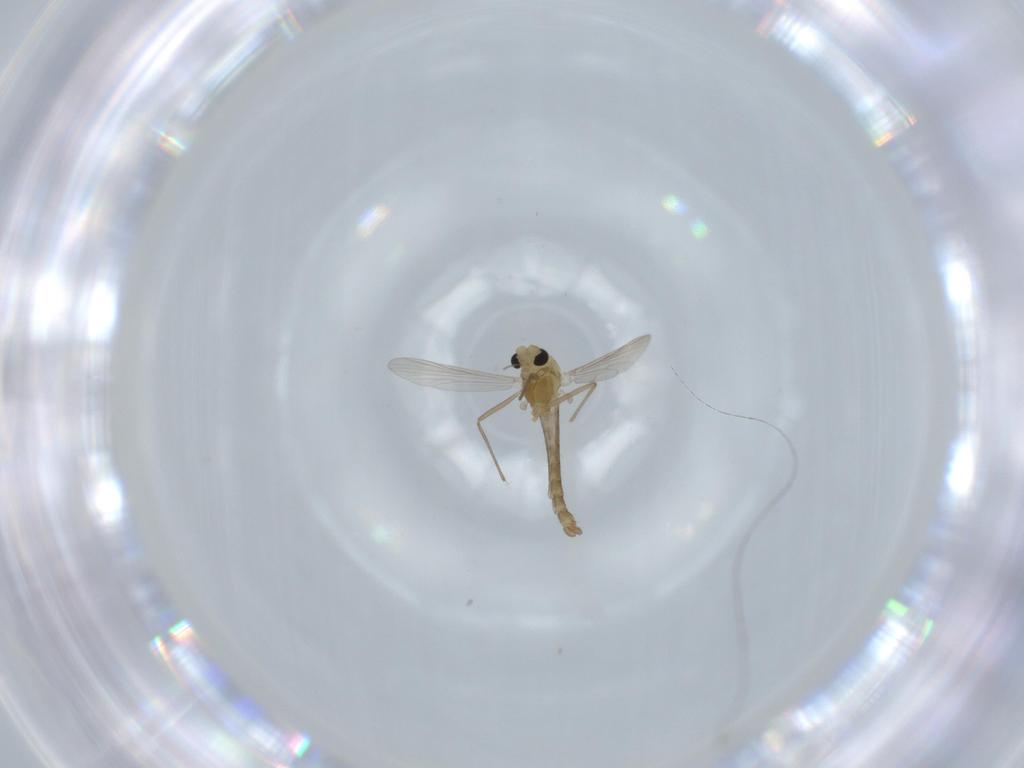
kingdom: Animalia
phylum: Arthropoda
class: Insecta
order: Diptera
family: Chironomidae
